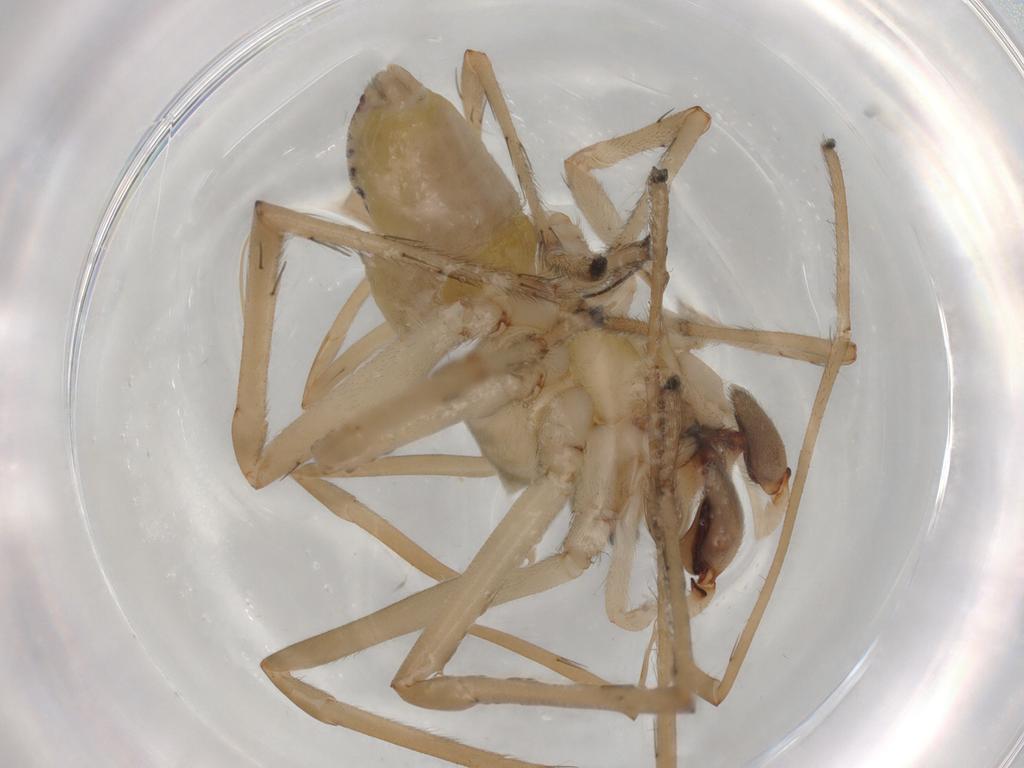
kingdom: Animalia
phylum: Arthropoda
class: Arachnida
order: Araneae
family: Cheiracanthiidae
